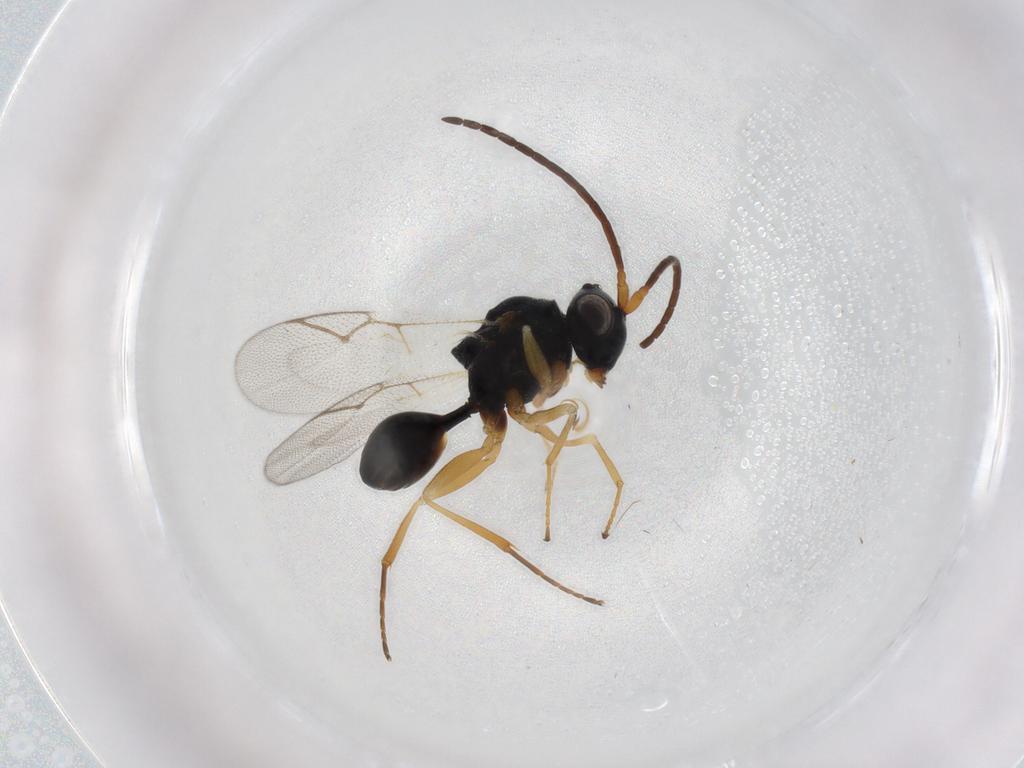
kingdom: Animalia
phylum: Arthropoda
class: Insecta
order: Hymenoptera
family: Figitidae
